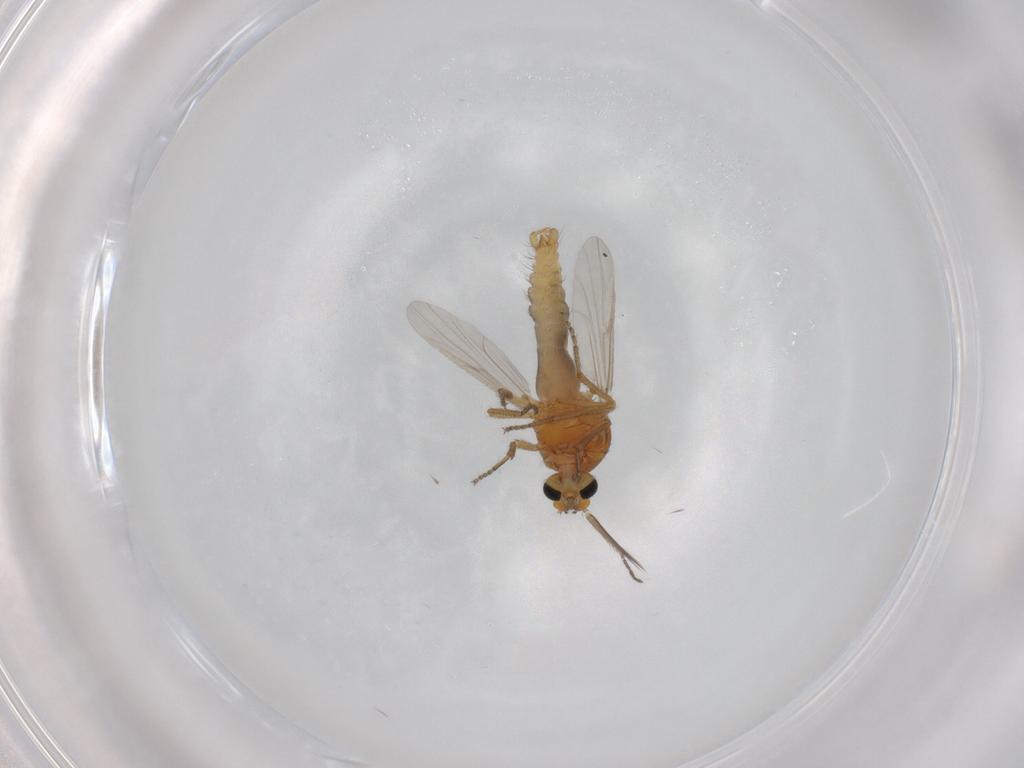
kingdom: Animalia
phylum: Arthropoda
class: Insecta
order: Diptera
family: Ceratopogonidae
